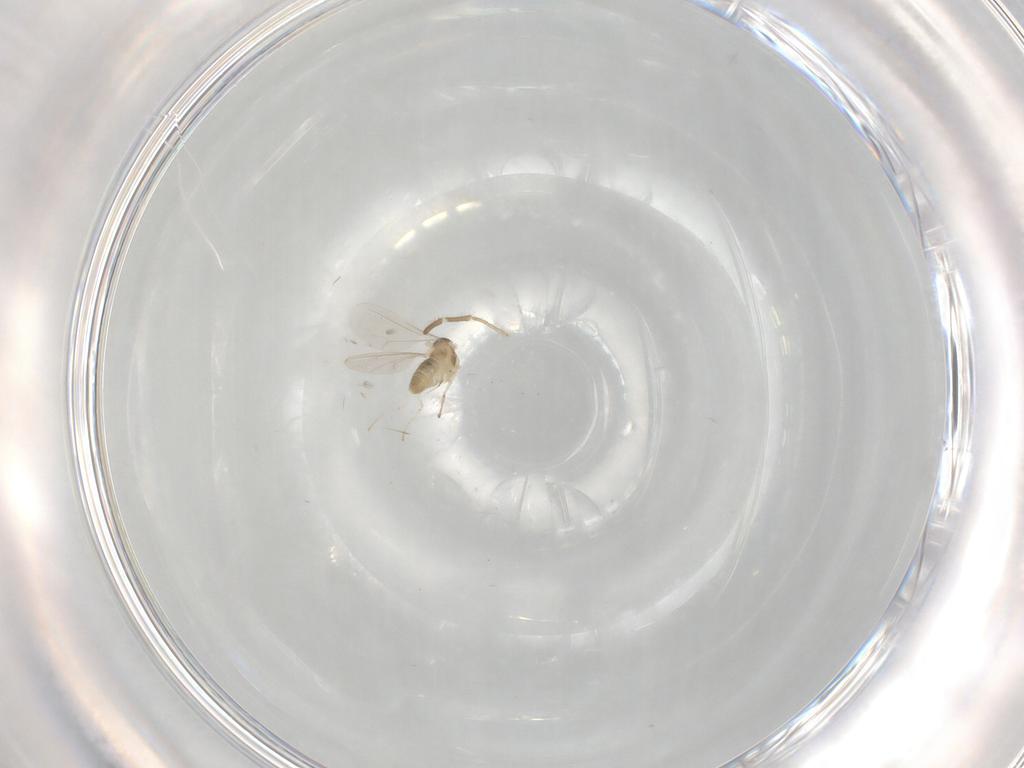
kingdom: Animalia
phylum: Arthropoda
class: Insecta
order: Diptera
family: Cecidomyiidae
